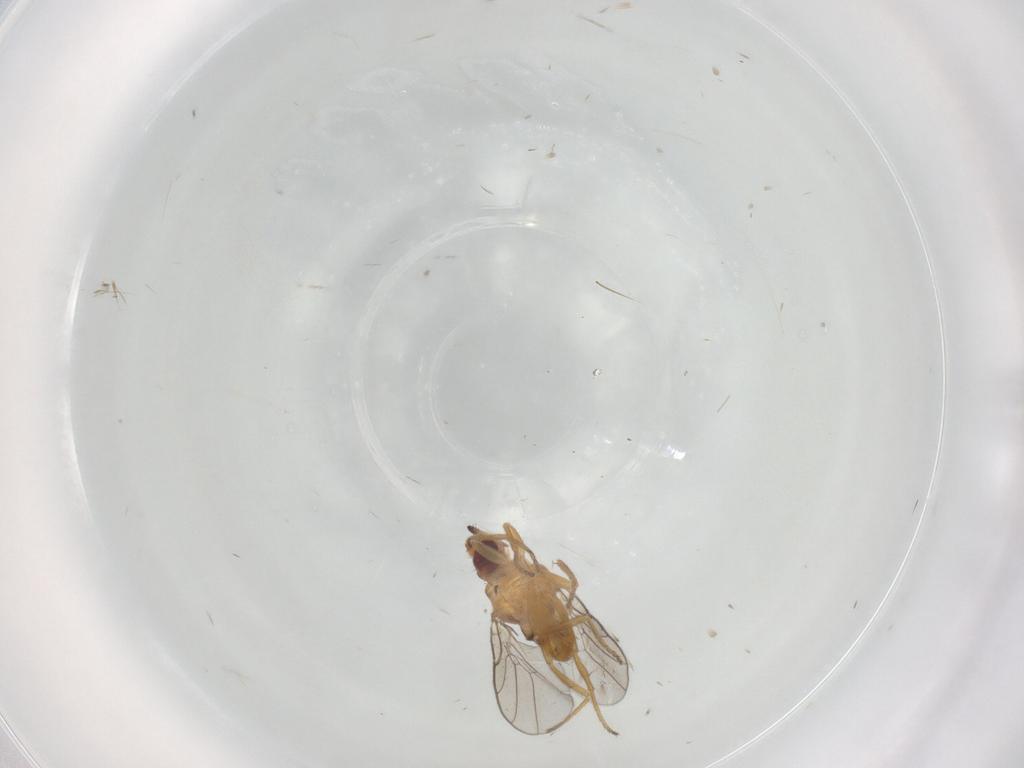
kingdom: Animalia
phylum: Arthropoda
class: Insecta
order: Diptera
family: Chloropidae
